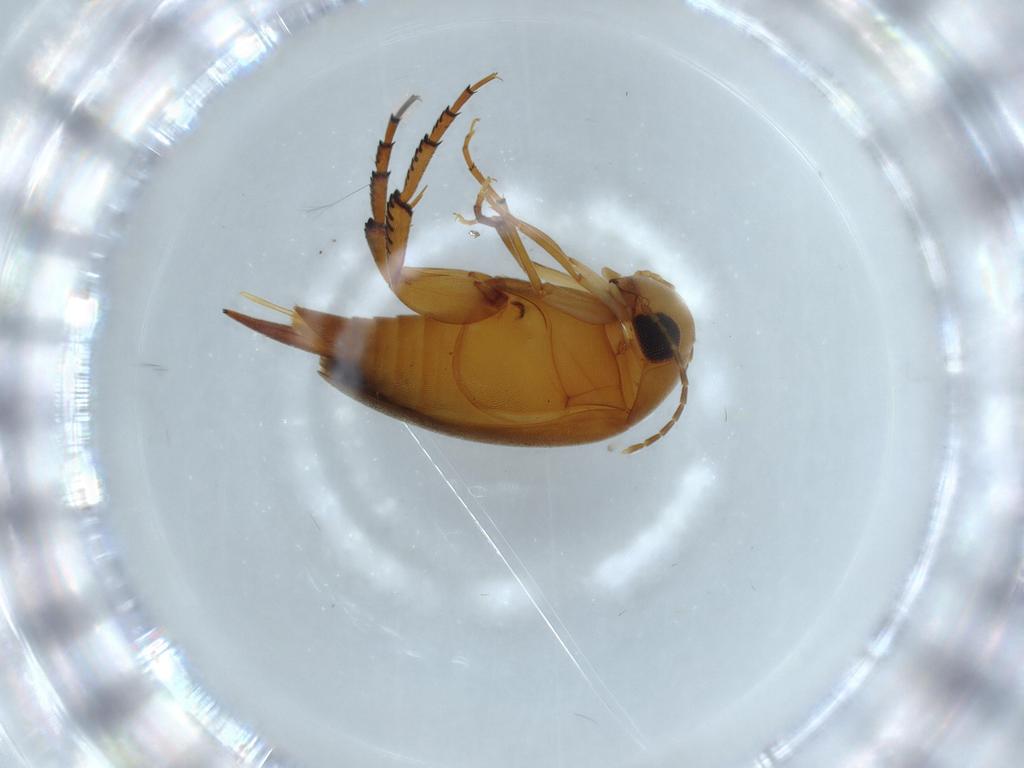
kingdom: Animalia
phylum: Arthropoda
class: Insecta
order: Coleoptera
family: Mordellidae
